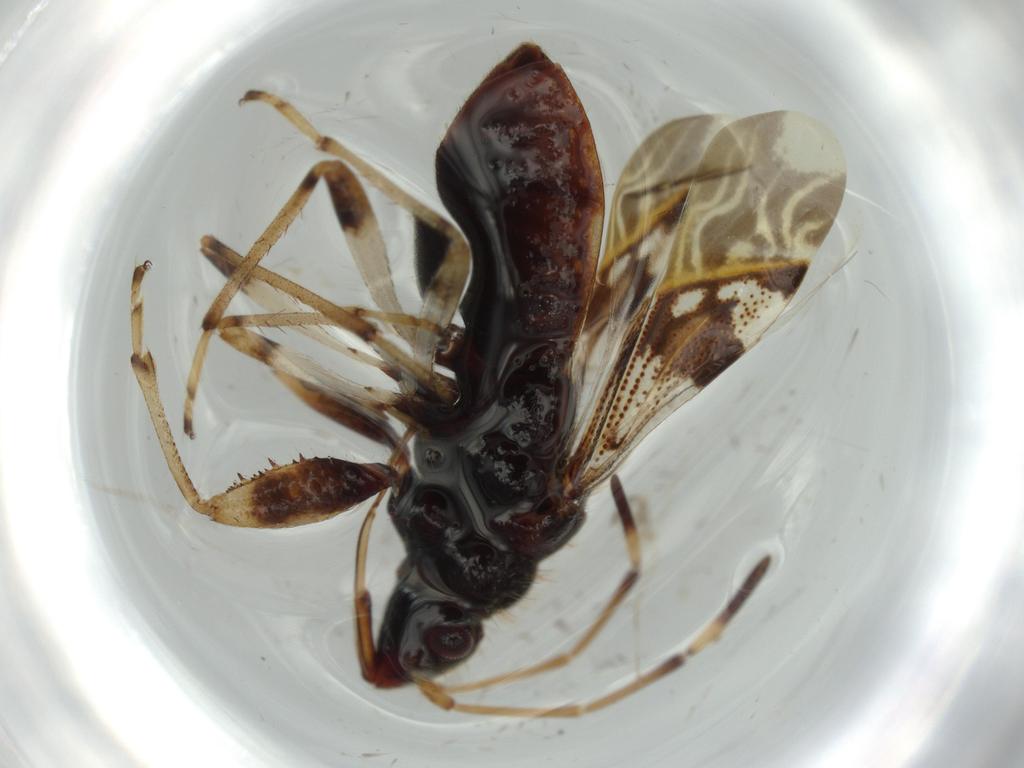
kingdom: Animalia
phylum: Arthropoda
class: Insecta
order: Hemiptera
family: Rhyparochromidae
